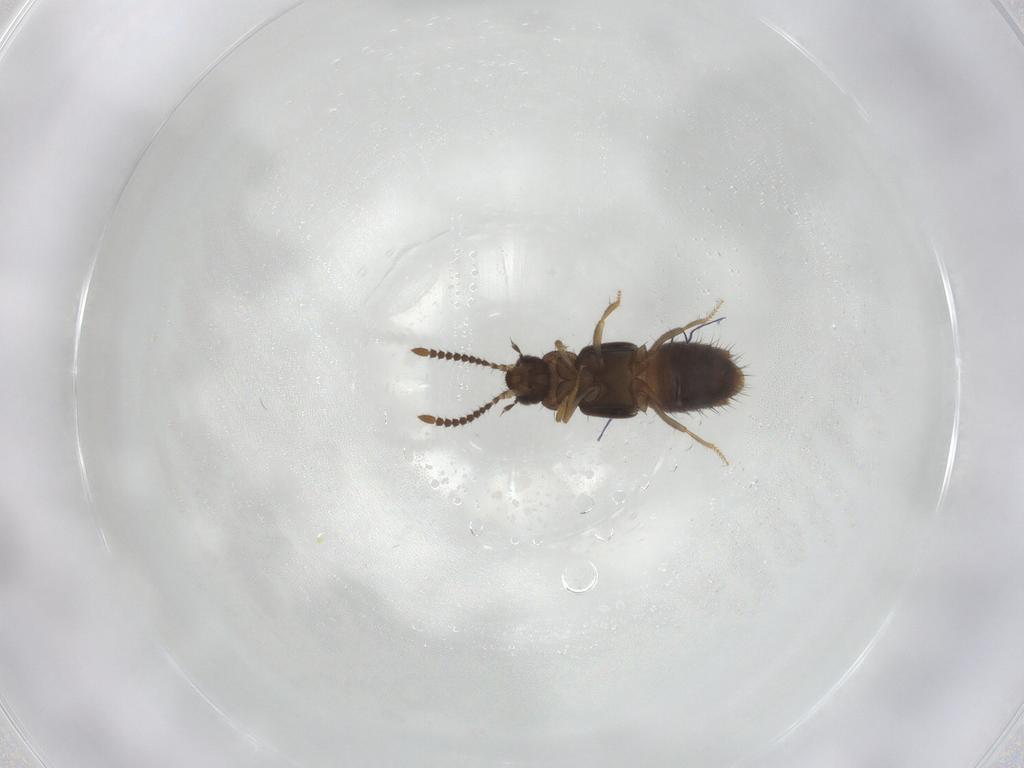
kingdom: Animalia
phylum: Arthropoda
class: Insecta
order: Coleoptera
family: Staphylinidae
